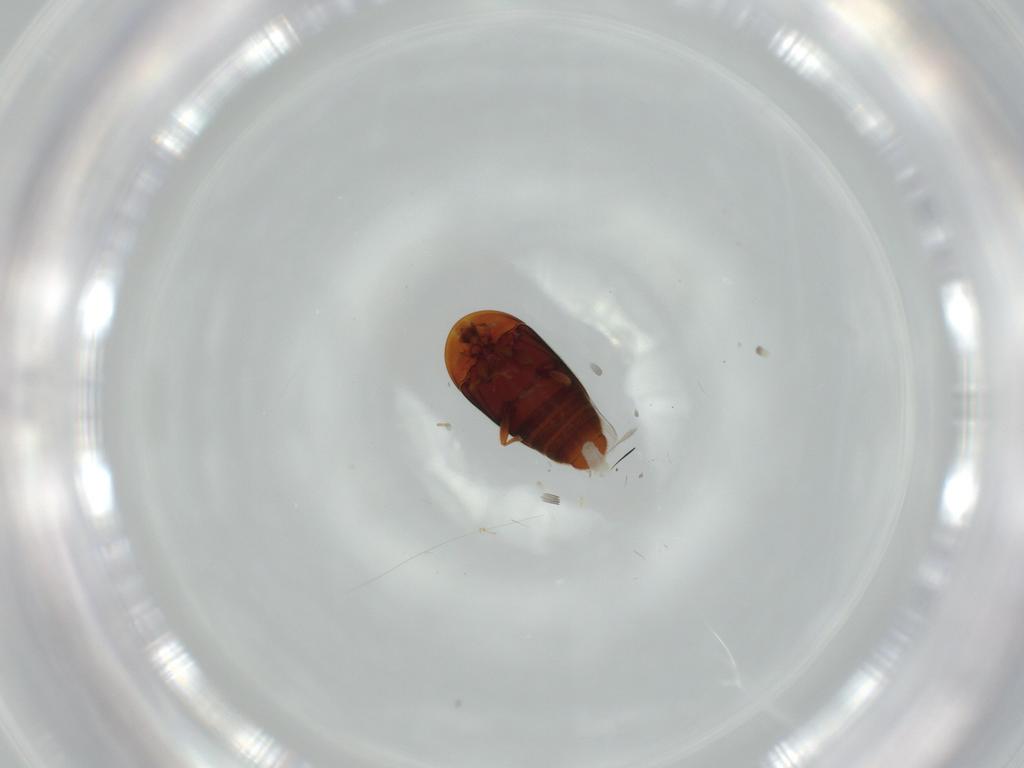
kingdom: Animalia
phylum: Arthropoda
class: Insecta
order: Coleoptera
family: Corylophidae
